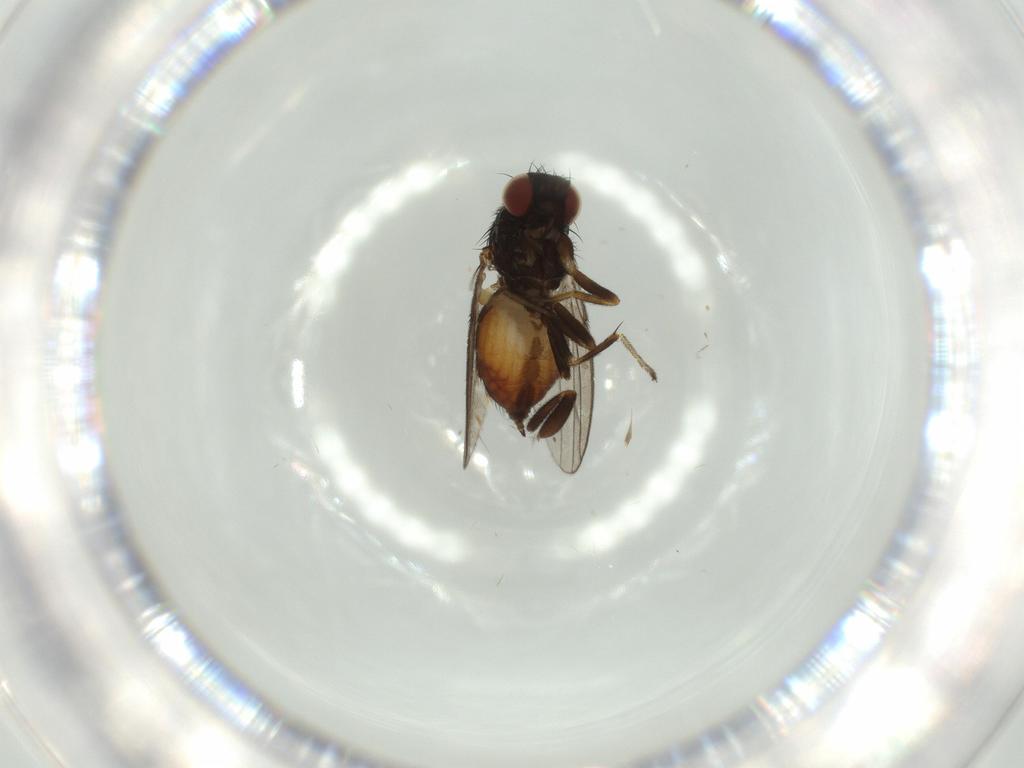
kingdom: Animalia
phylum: Arthropoda
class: Insecta
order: Diptera
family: Milichiidae
